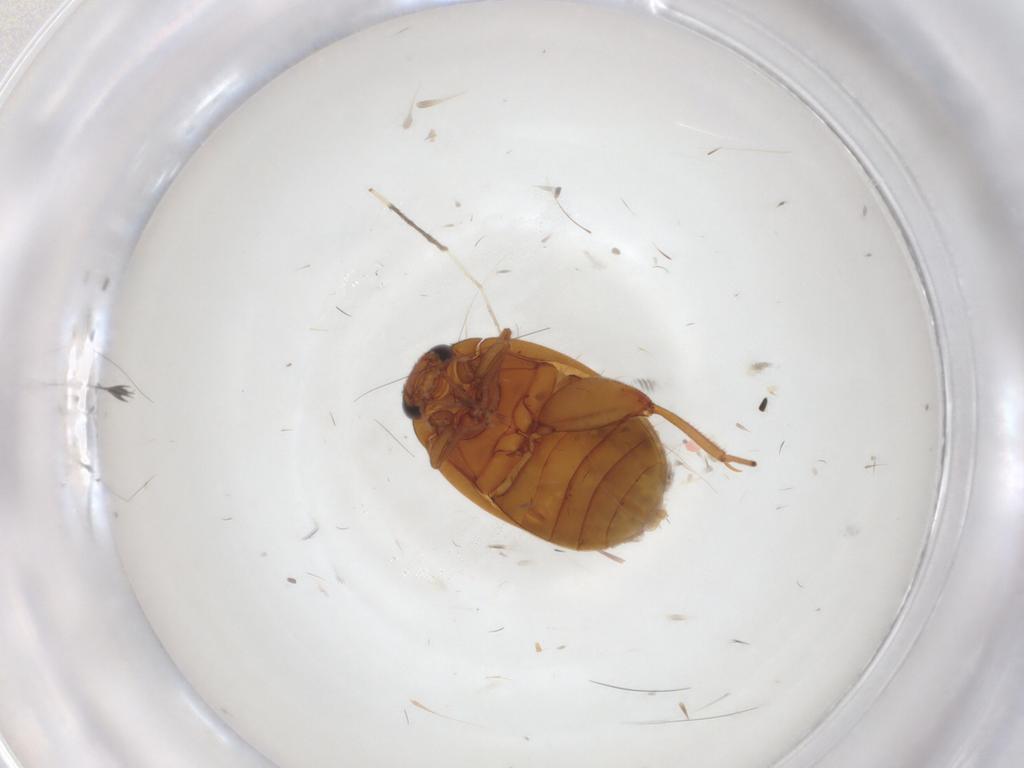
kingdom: Animalia
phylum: Arthropoda
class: Insecta
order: Coleoptera
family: Scirtidae
